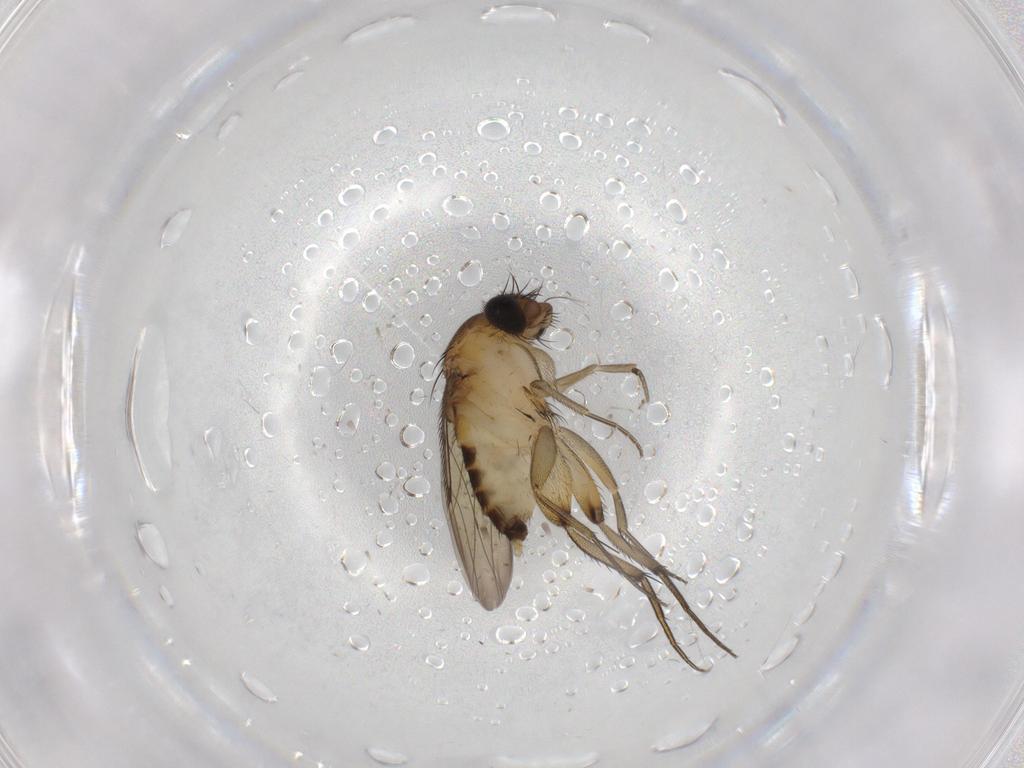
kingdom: Animalia
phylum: Arthropoda
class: Insecta
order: Diptera
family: Phoridae
